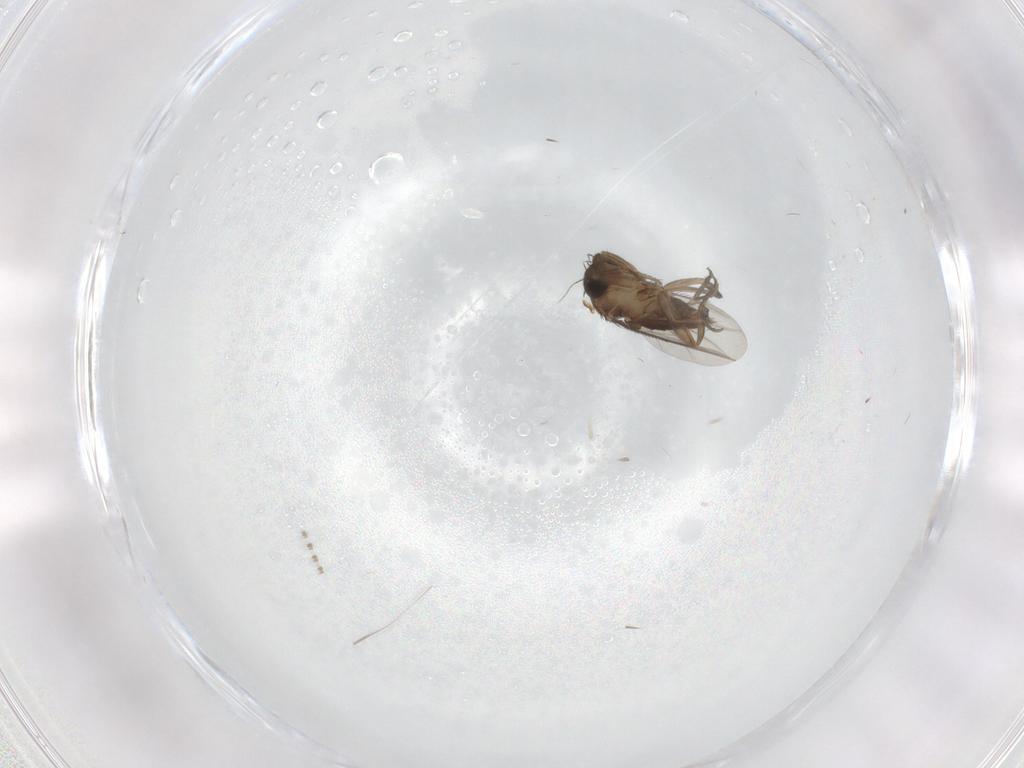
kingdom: Animalia
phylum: Arthropoda
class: Insecta
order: Diptera
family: Phoridae
